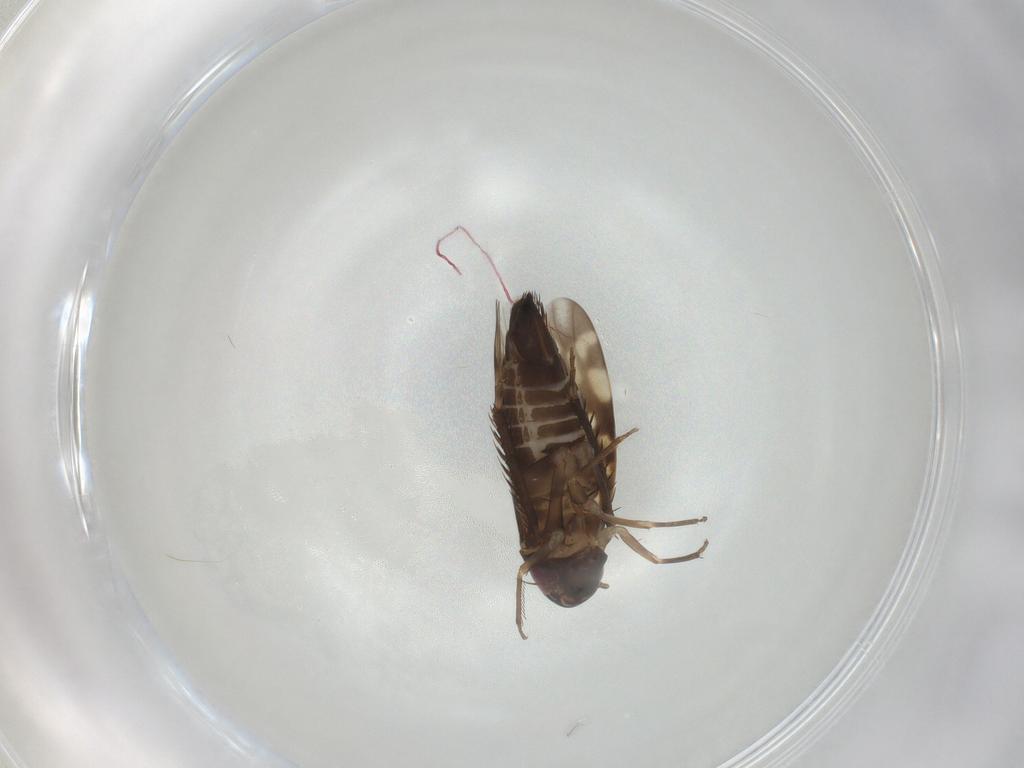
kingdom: Animalia
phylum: Arthropoda
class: Insecta
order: Hemiptera
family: Cicadellidae
